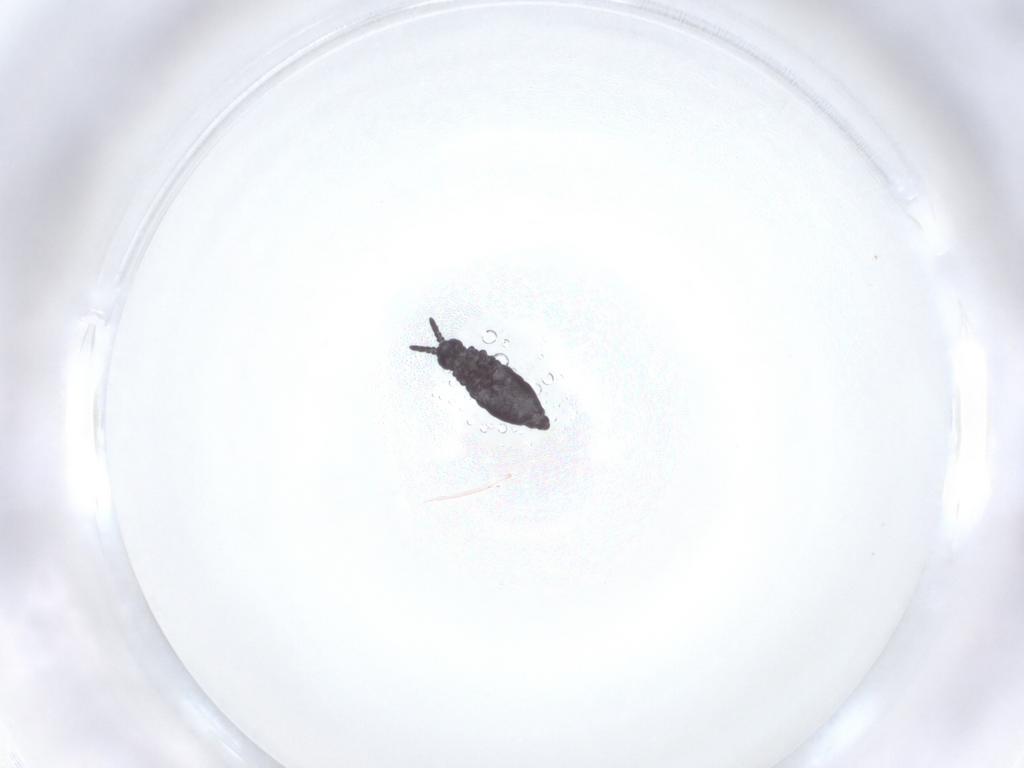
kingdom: Animalia
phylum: Arthropoda
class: Collembola
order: Poduromorpha
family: Hypogastruridae
